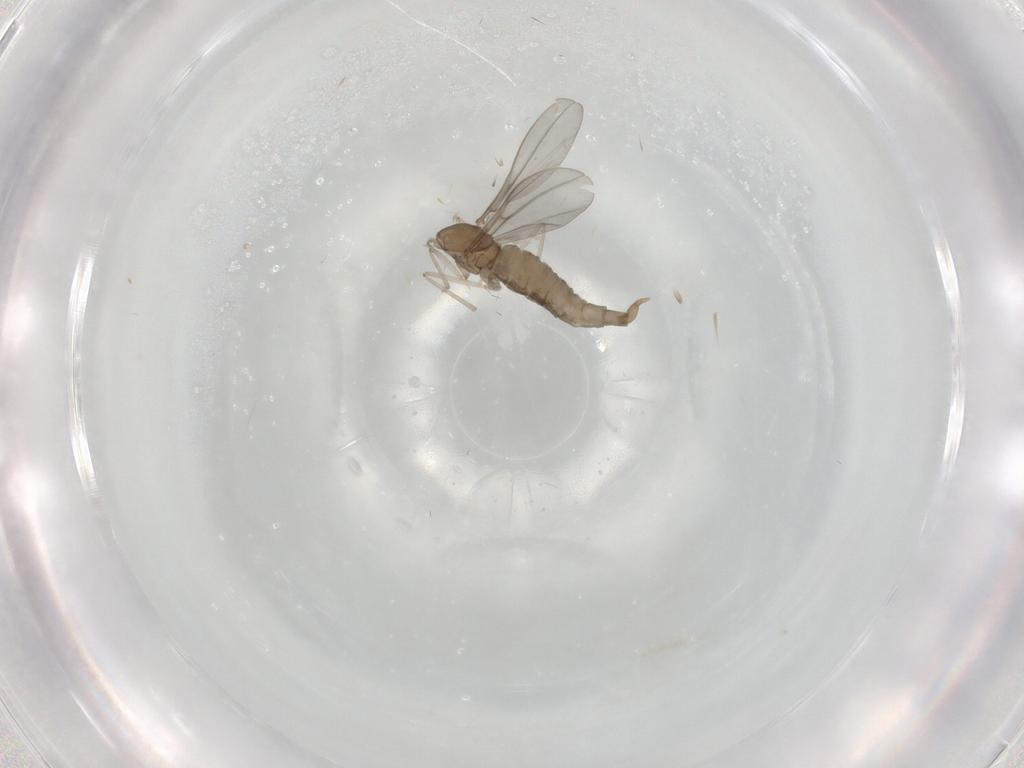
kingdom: Animalia
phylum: Arthropoda
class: Insecta
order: Diptera
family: Cecidomyiidae
